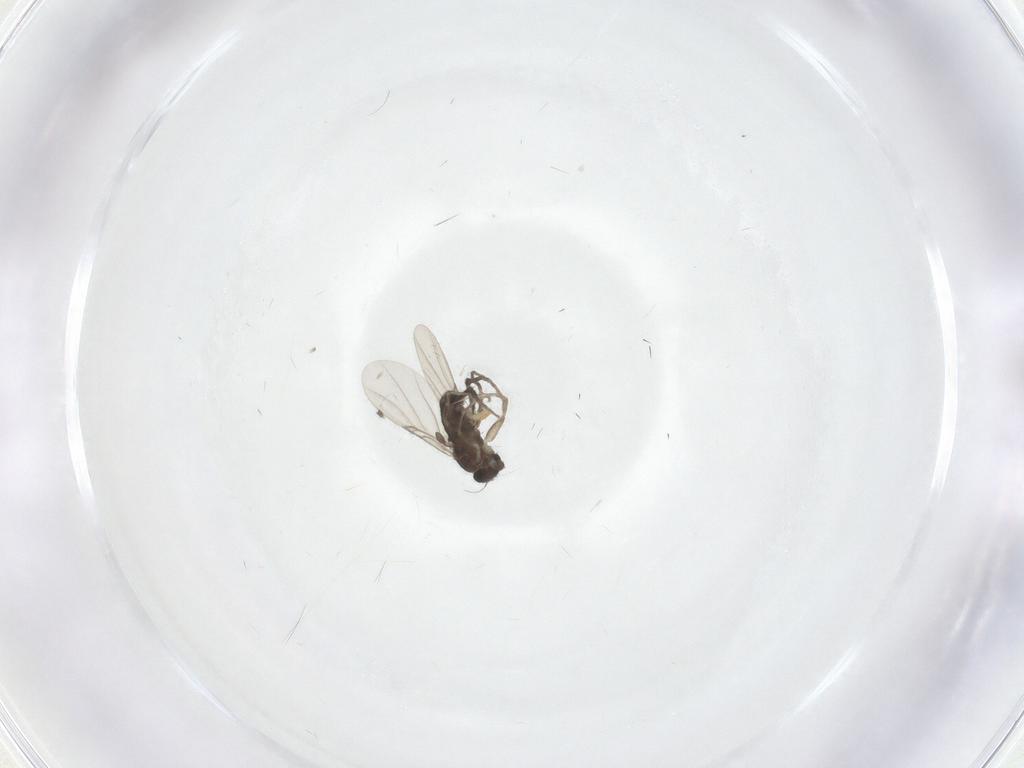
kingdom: Animalia
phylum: Arthropoda
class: Insecta
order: Diptera
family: Phoridae
